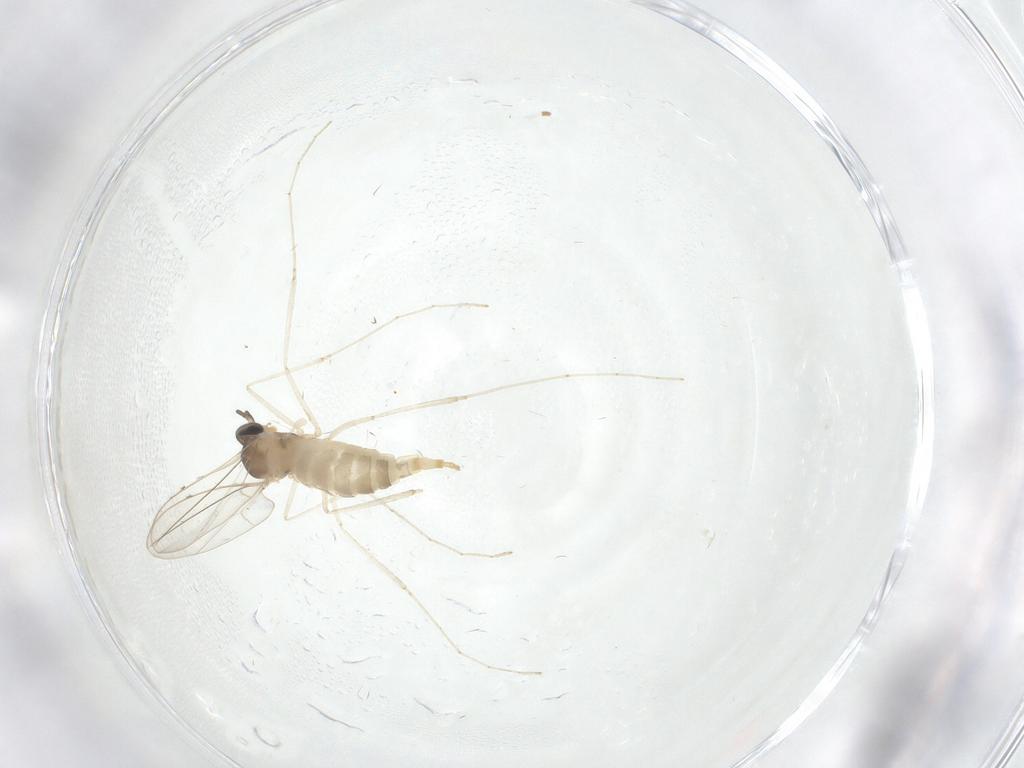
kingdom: Animalia
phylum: Arthropoda
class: Insecta
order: Diptera
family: Cecidomyiidae
